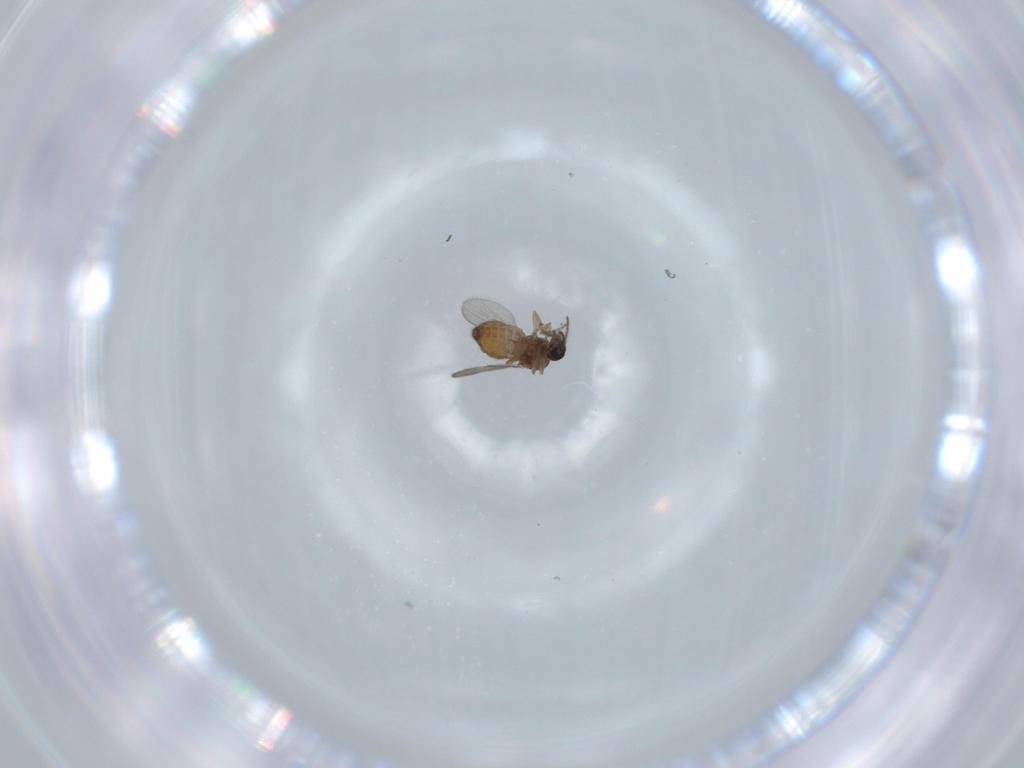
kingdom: Animalia
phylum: Arthropoda
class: Insecta
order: Diptera
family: Ceratopogonidae
